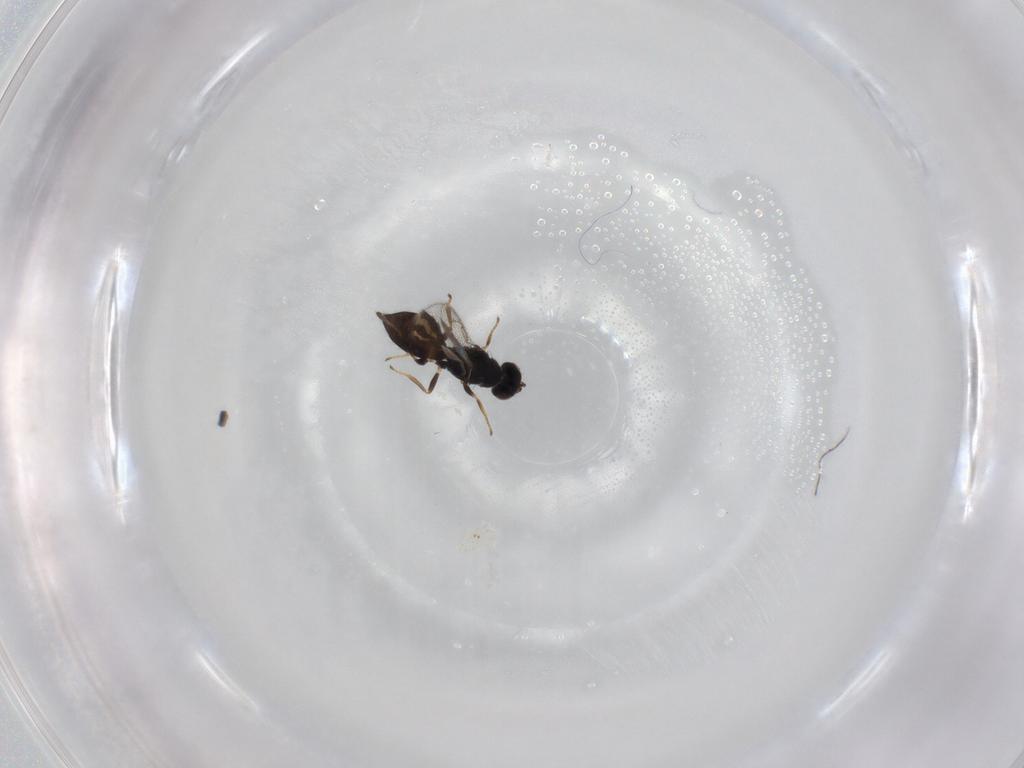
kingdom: Animalia
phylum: Arthropoda
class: Insecta
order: Hymenoptera
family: Eulophidae
